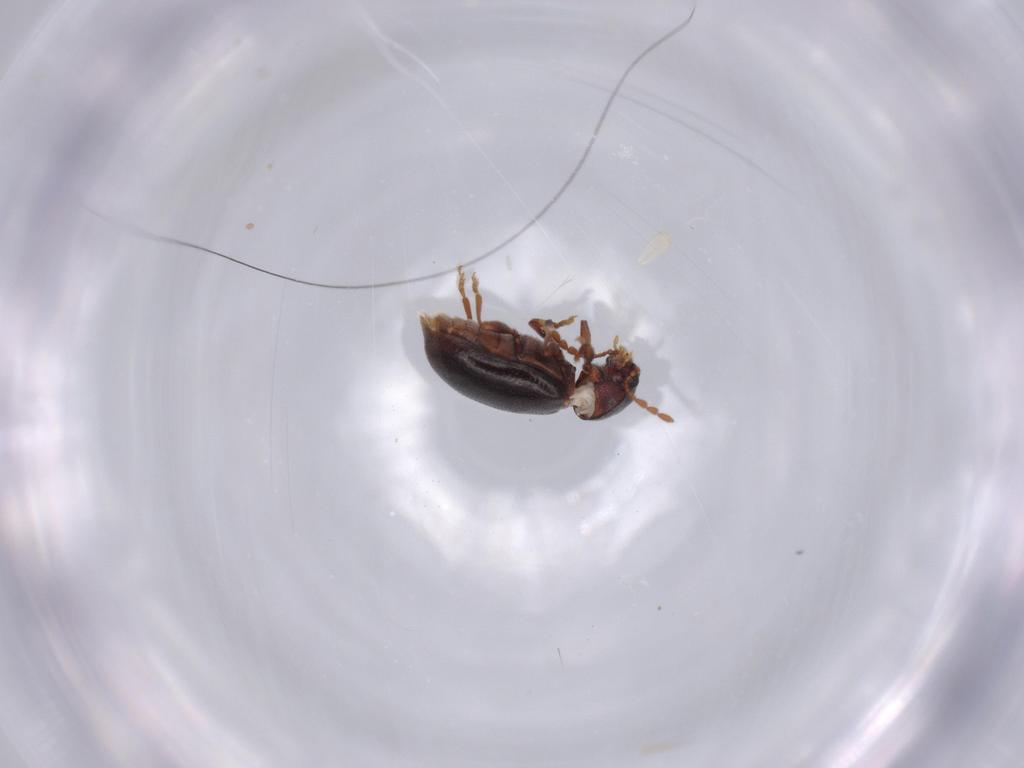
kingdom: Animalia
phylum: Arthropoda
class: Insecta
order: Coleoptera
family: Ptinidae
